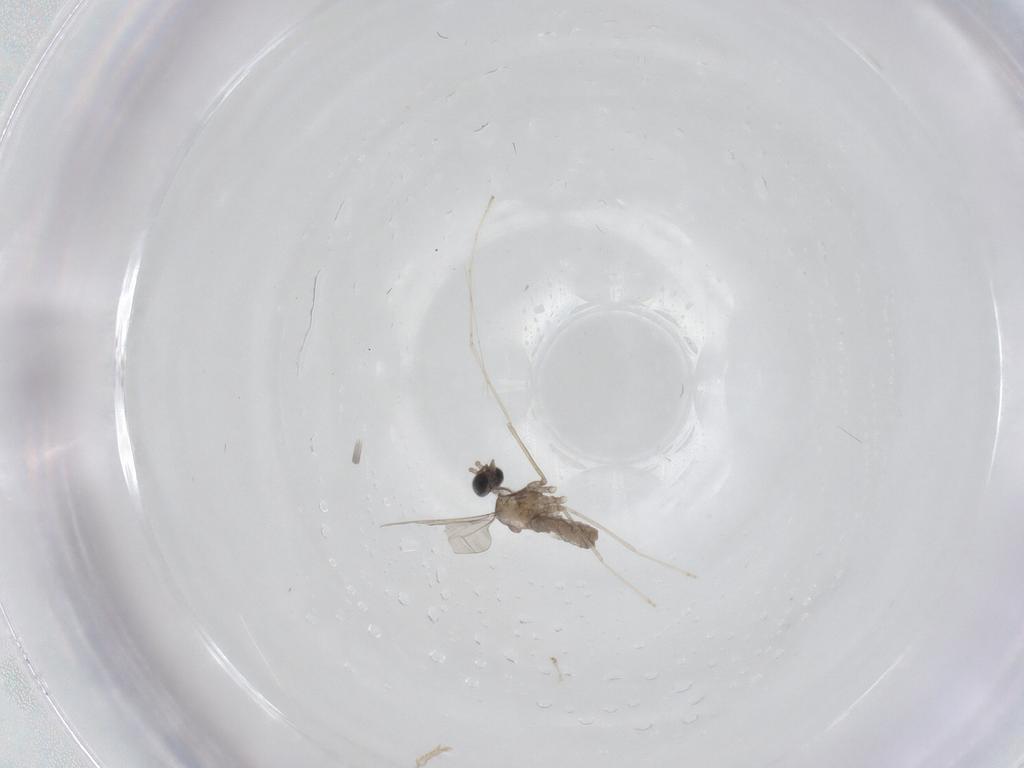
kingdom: Animalia
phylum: Arthropoda
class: Insecta
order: Diptera
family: Cecidomyiidae
